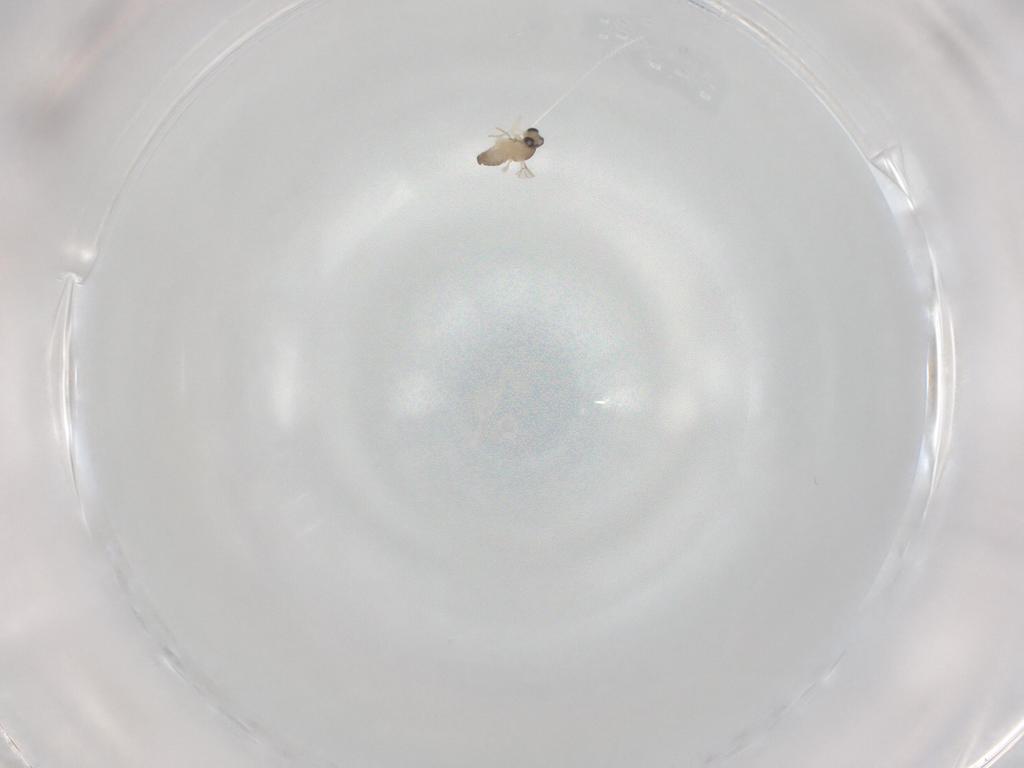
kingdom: Animalia
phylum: Arthropoda
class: Insecta
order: Diptera
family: Cecidomyiidae
